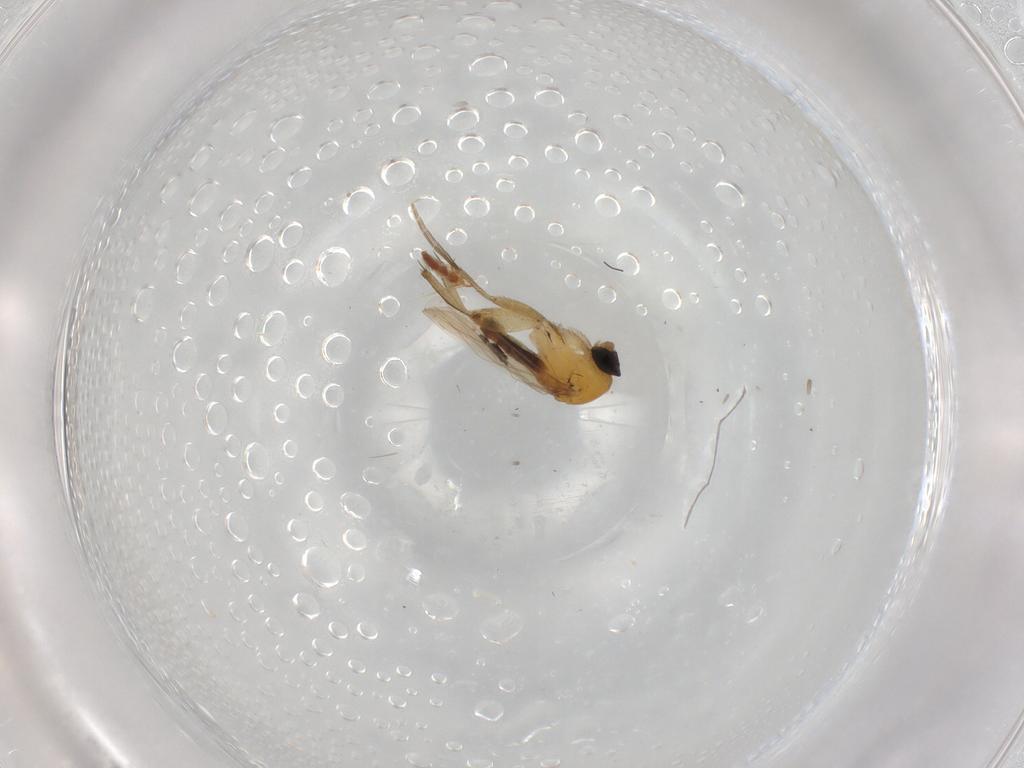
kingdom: Animalia
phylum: Arthropoda
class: Insecta
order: Diptera
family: Phoridae
